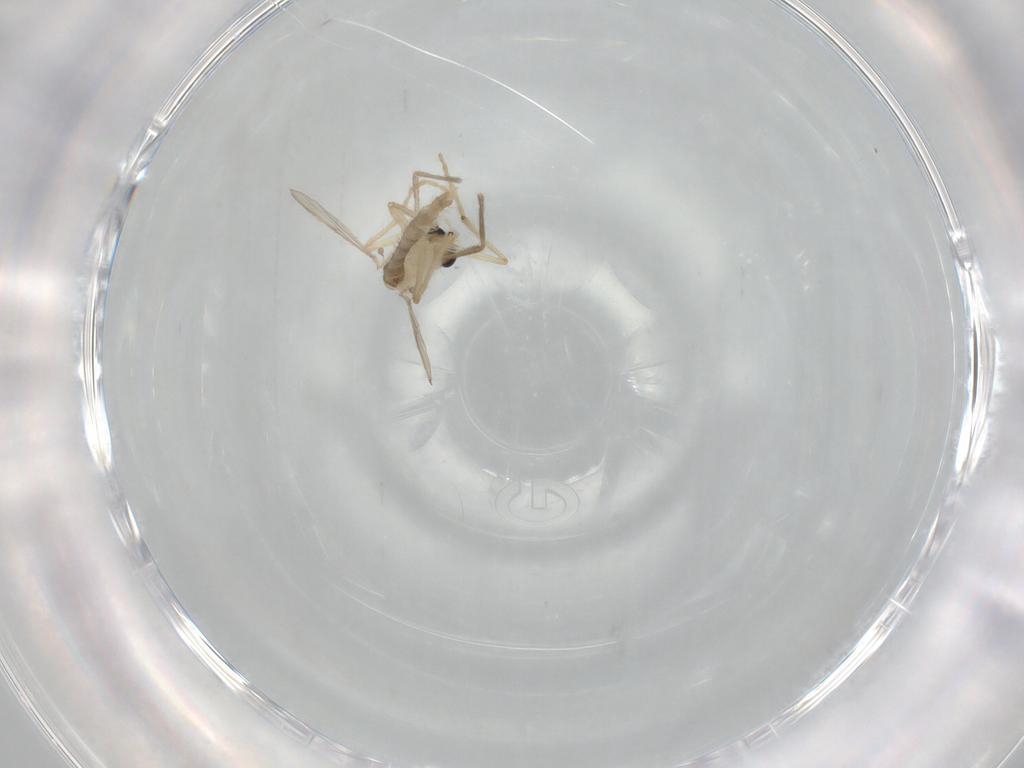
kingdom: Animalia
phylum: Arthropoda
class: Insecta
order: Diptera
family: Chironomidae
